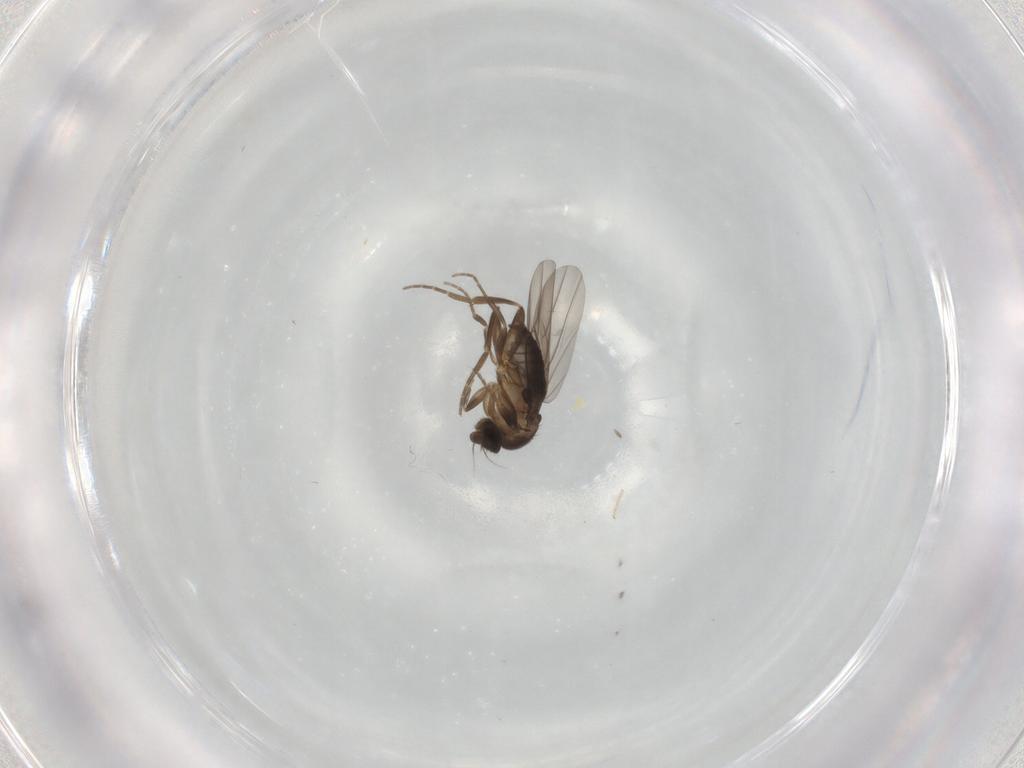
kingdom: Animalia
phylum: Arthropoda
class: Insecta
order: Diptera
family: Phoridae
